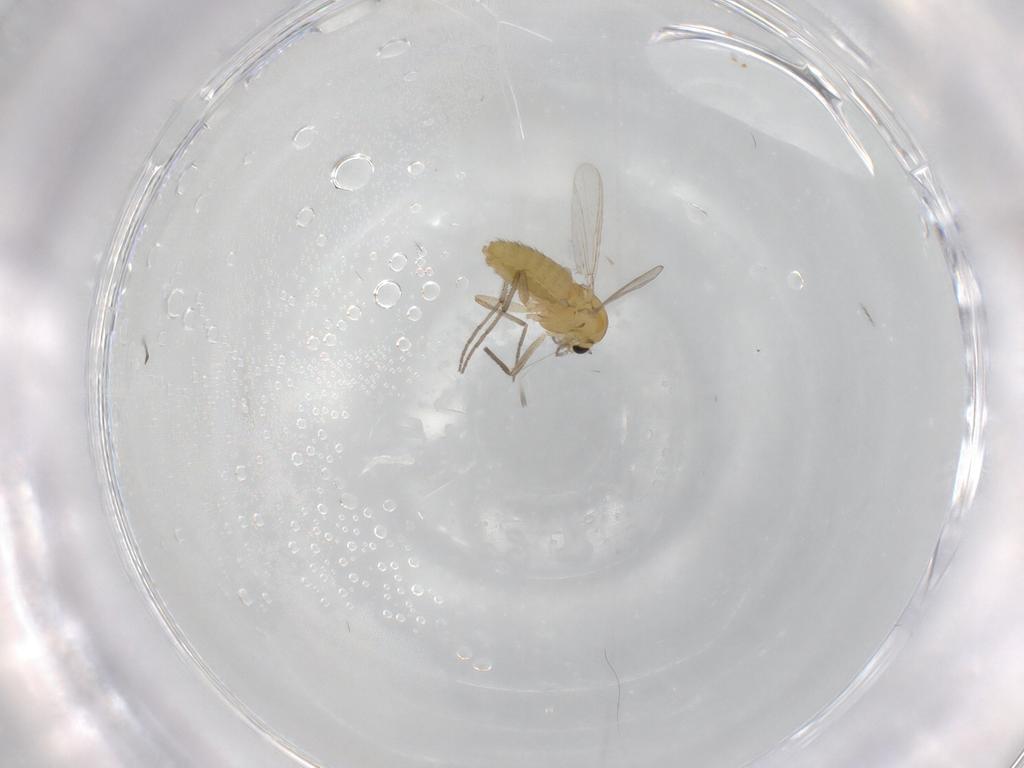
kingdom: Animalia
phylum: Arthropoda
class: Insecta
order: Diptera
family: Chironomidae
